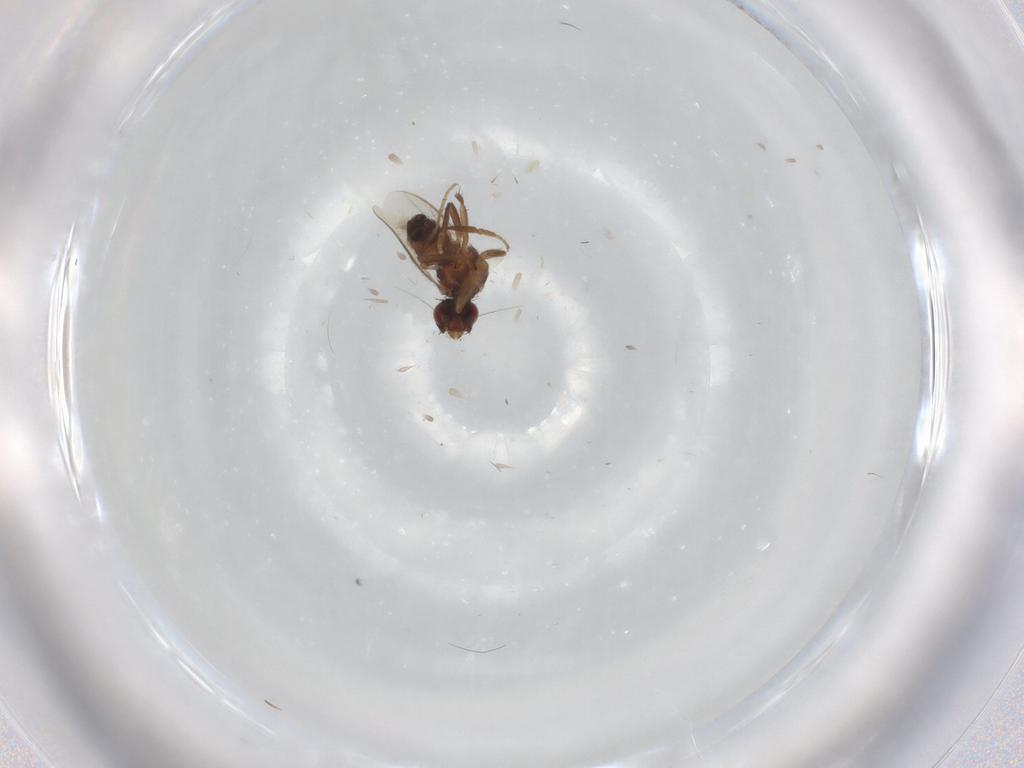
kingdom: Animalia
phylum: Arthropoda
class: Insecta
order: Diptera
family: Sphaeroceridae
